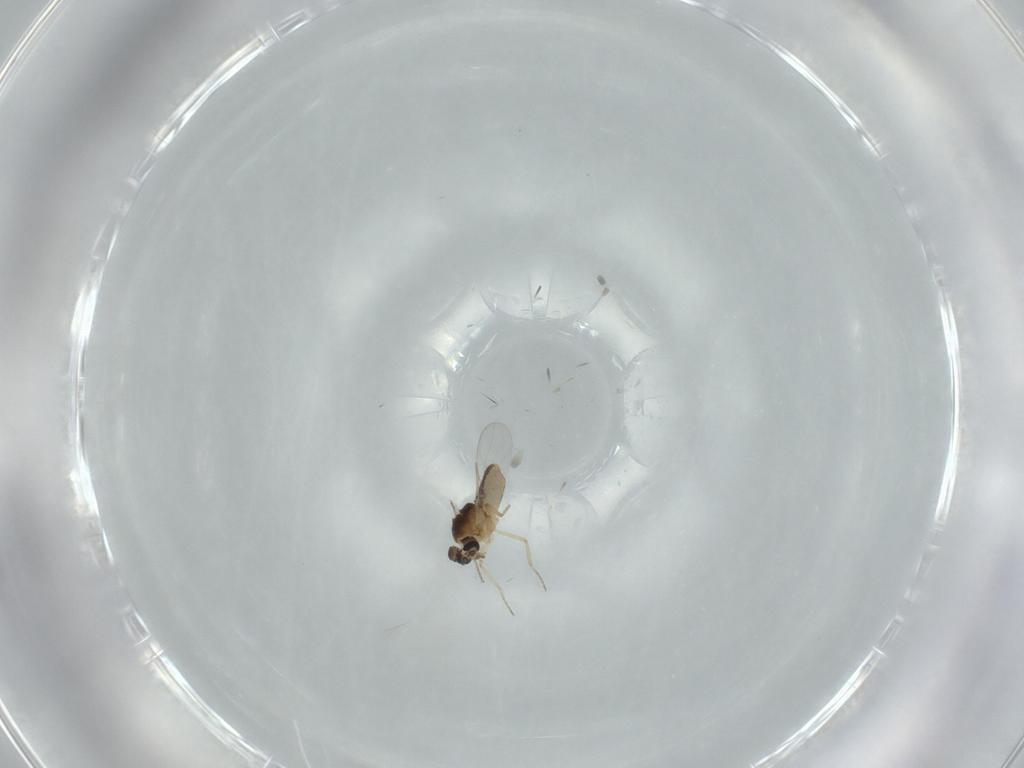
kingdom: Animalia
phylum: Arthropoda
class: Insecta
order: Diptera
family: Ceratopogonidae
